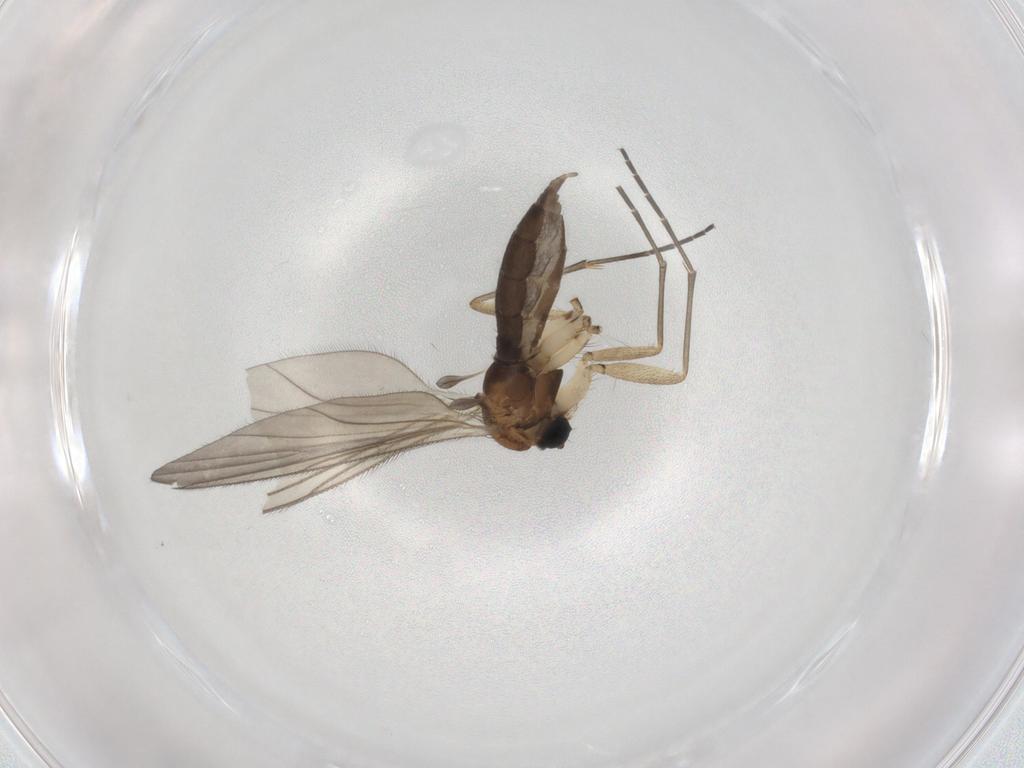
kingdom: Animalia
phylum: Arthropoda
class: Insecta
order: Diptera
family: Sciaridae
